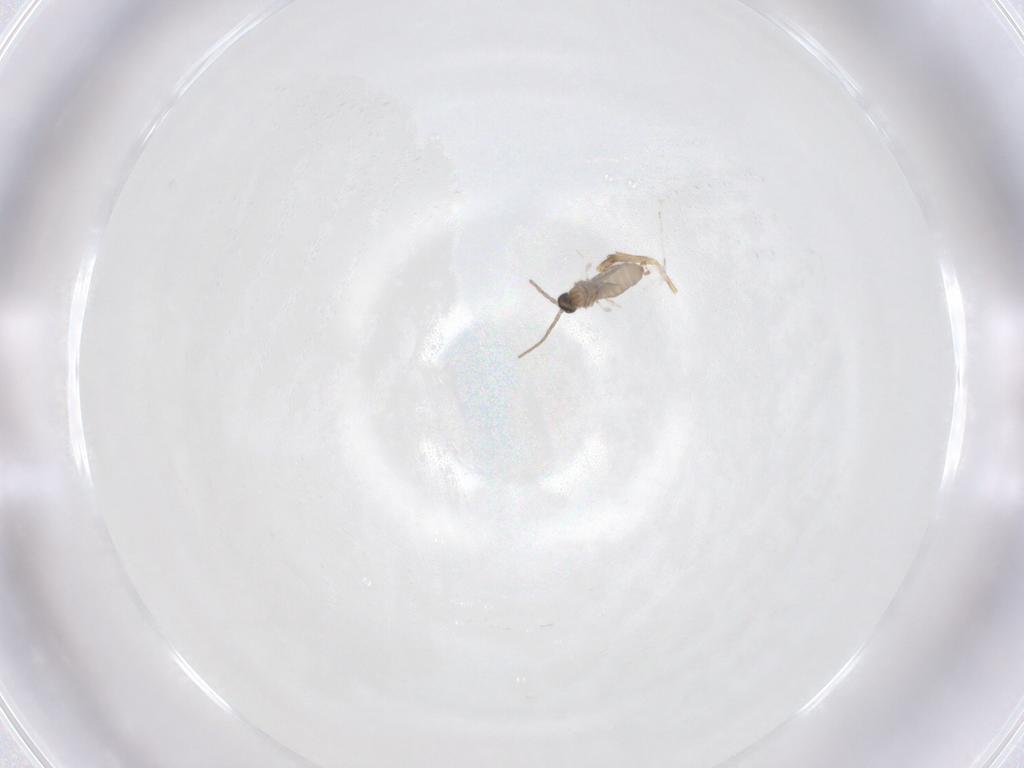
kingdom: Animalia
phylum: Arthropoda
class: Insecta
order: Diptera
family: Cecidomyiidae
